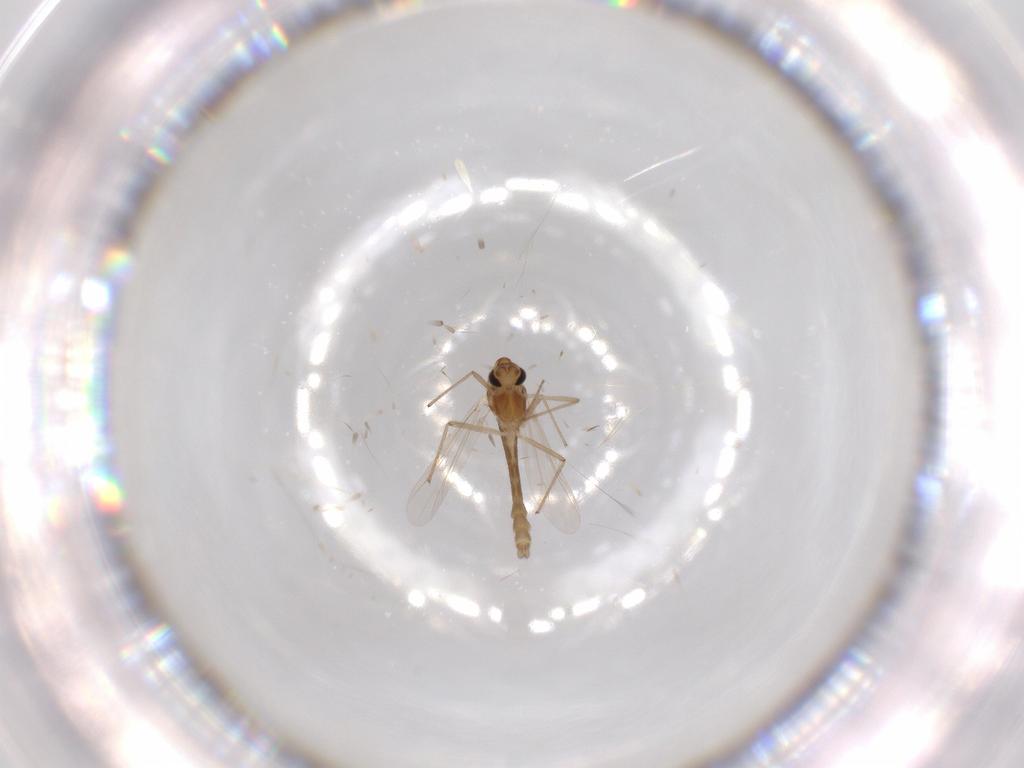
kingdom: Animalia
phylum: Arthropoda
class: Insecta
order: Diptera
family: Chironomidae
